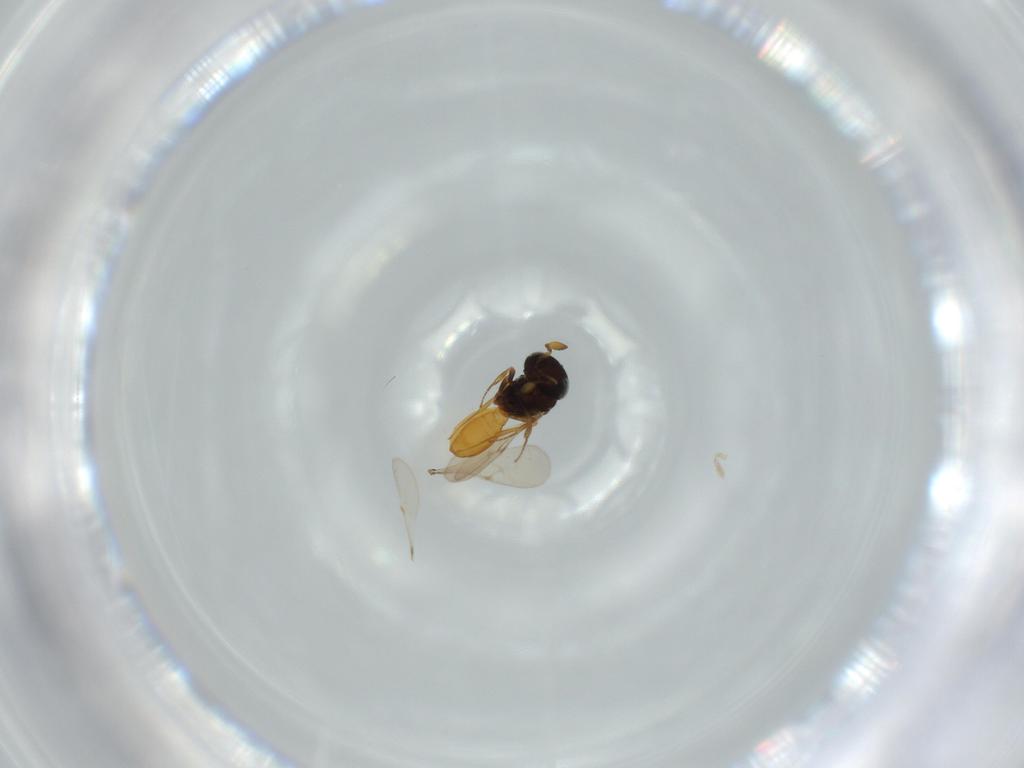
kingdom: Animalia
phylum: Arthropoda
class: Insecta
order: Hymenoptera
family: Scelionidae
